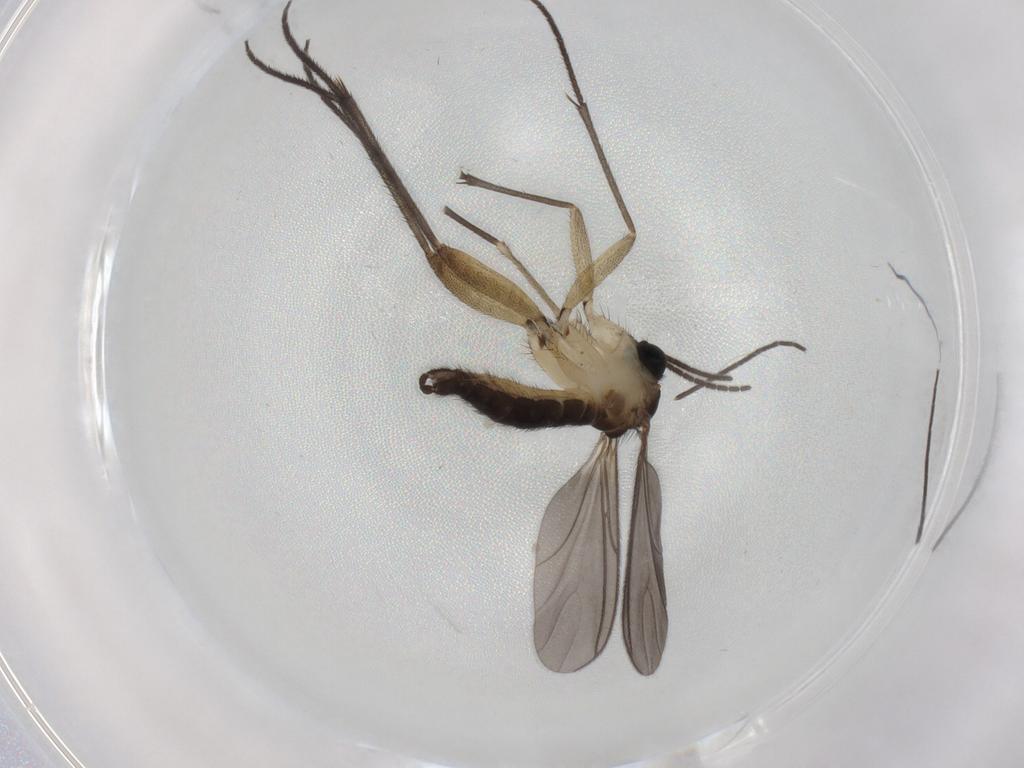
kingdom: Animalia
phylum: Arthropoda
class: Insecta
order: Diptera
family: Sciaridae
